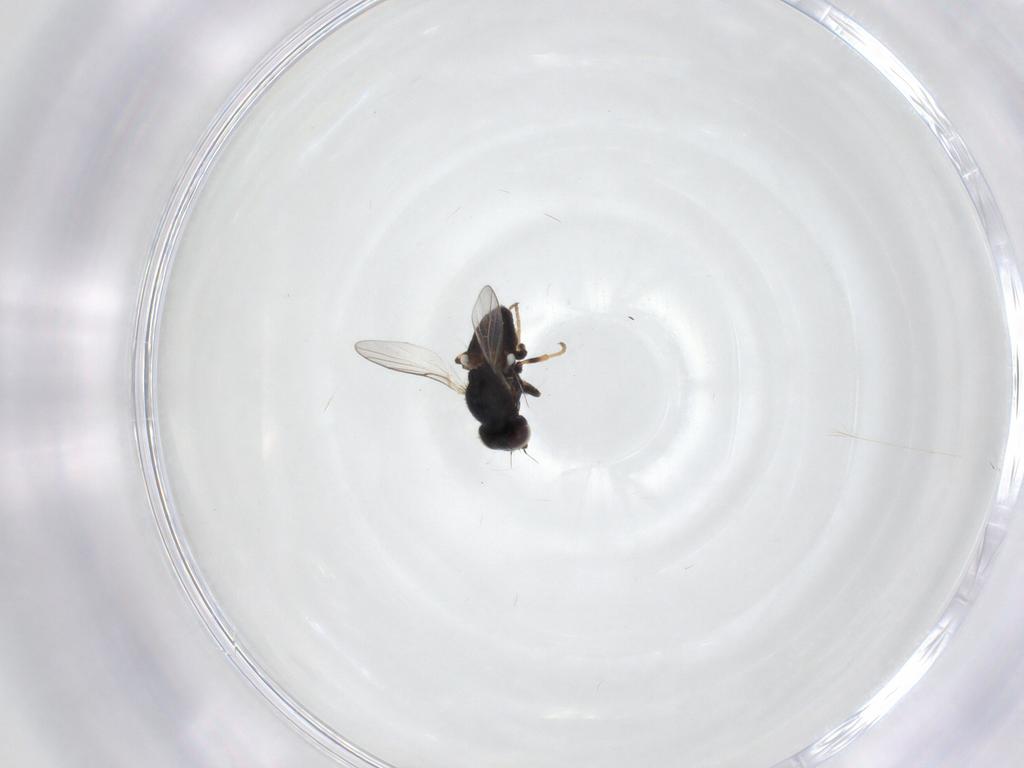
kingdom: Animalia
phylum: Arthropoda
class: Insecta
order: Diptera
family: Chloropidae
